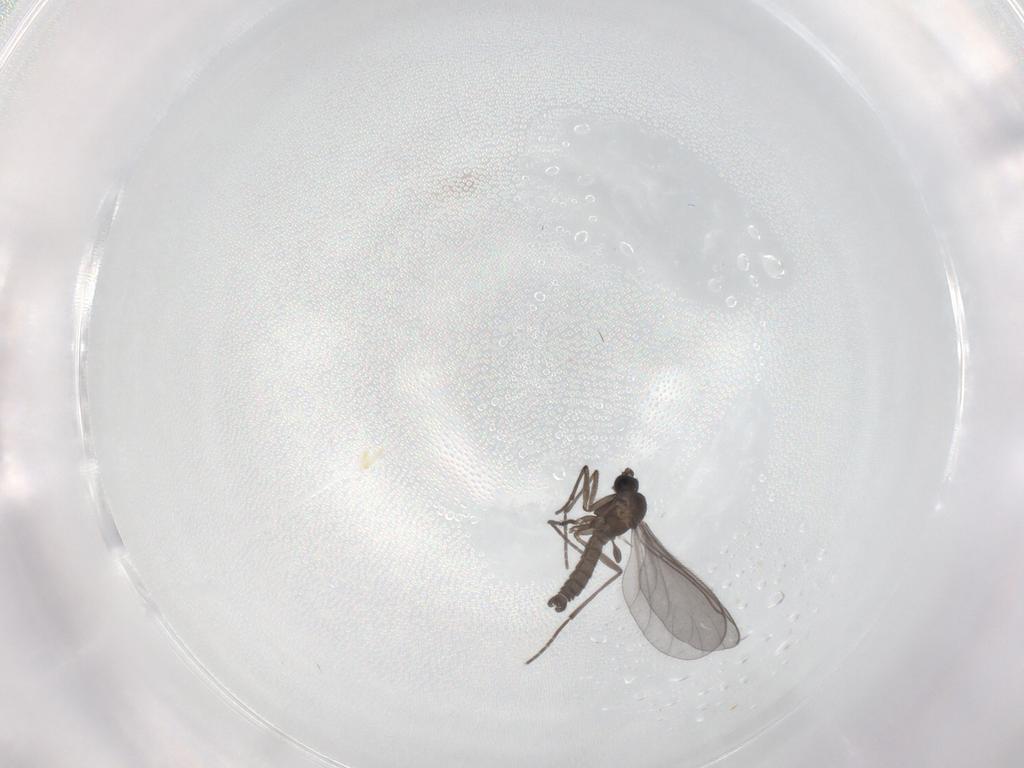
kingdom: Animalia
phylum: Arthropoda
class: Insecta
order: Diptera
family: Sciaridae
